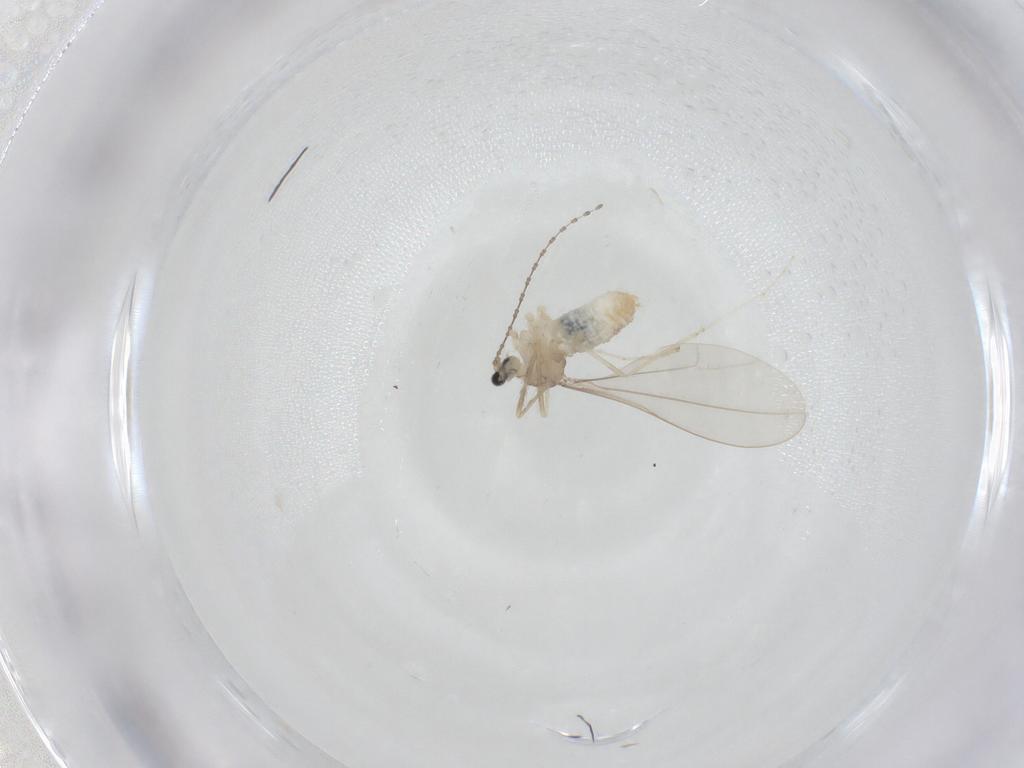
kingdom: Animalia
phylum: Arthropoda
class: Insecta
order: Diptera
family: Cecidomyiidae
